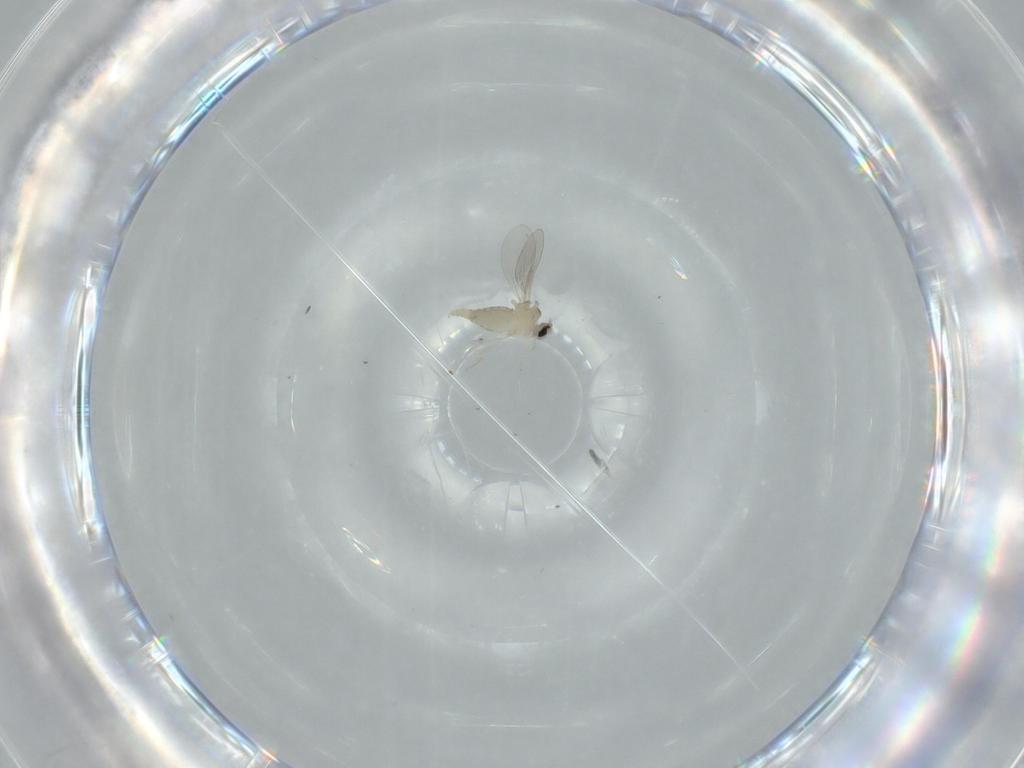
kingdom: Animalia
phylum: Arthropoda
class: Insecta
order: Diptera
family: Cecidomyiidae
